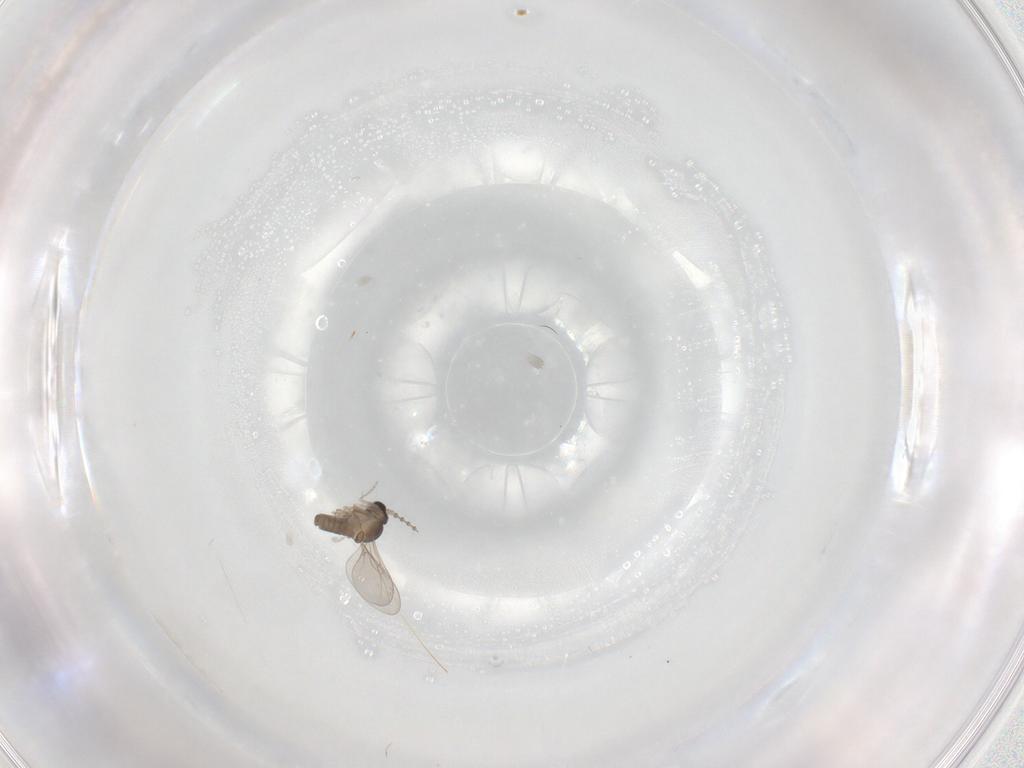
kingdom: Animalia
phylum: Arthropoda
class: Insecta
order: Diptera
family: Cecidomyiidae
